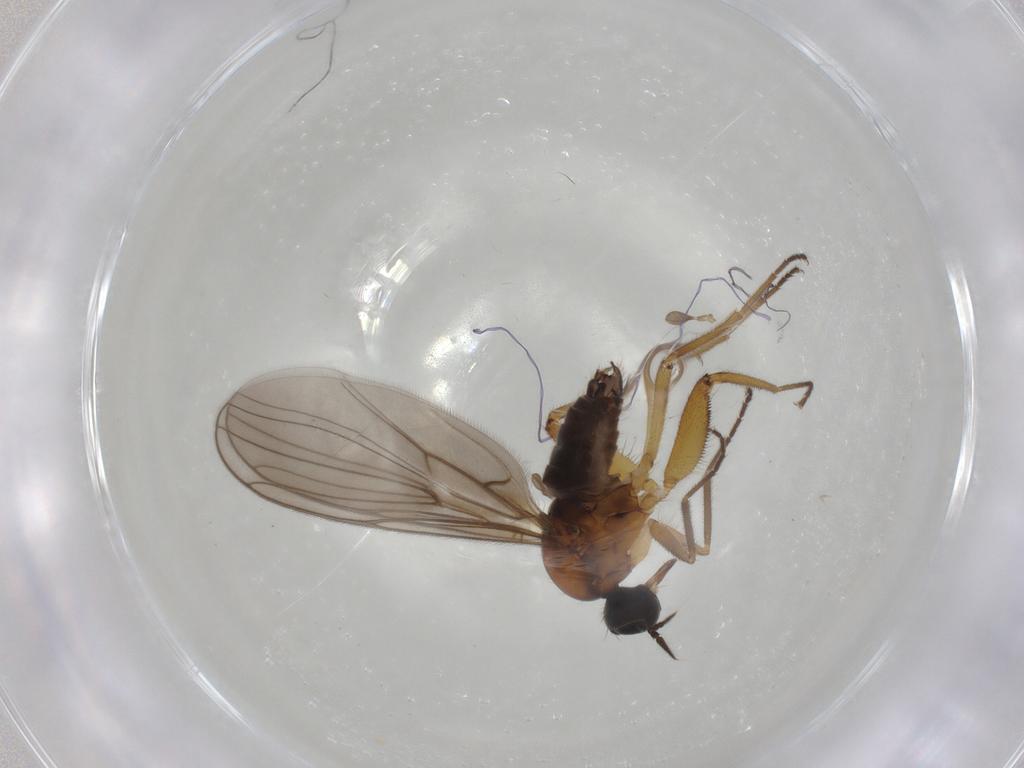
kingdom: Animalia
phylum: Arthropoda
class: Insecta
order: Diptera
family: Hybotidae
